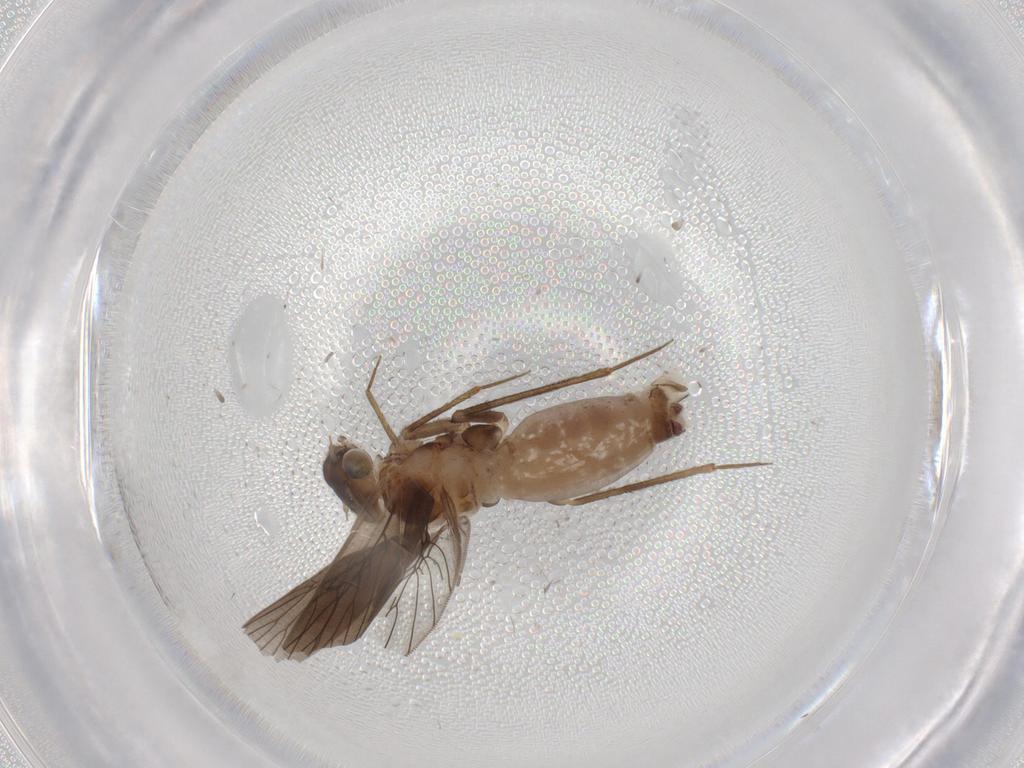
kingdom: Animalia
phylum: Arthropoda
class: Insecta
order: Psocodea
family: Lepidopsocidae
